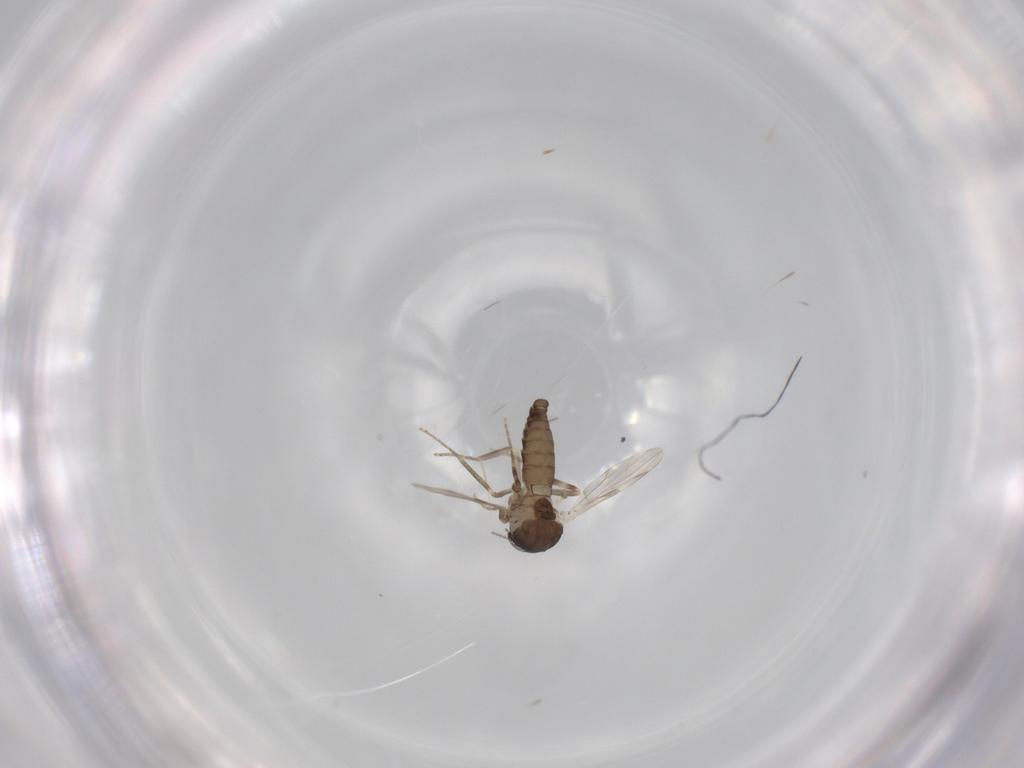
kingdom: Animalia
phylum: Arthropoda
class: Insecta
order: Diptera
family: Ceratopogonidae
